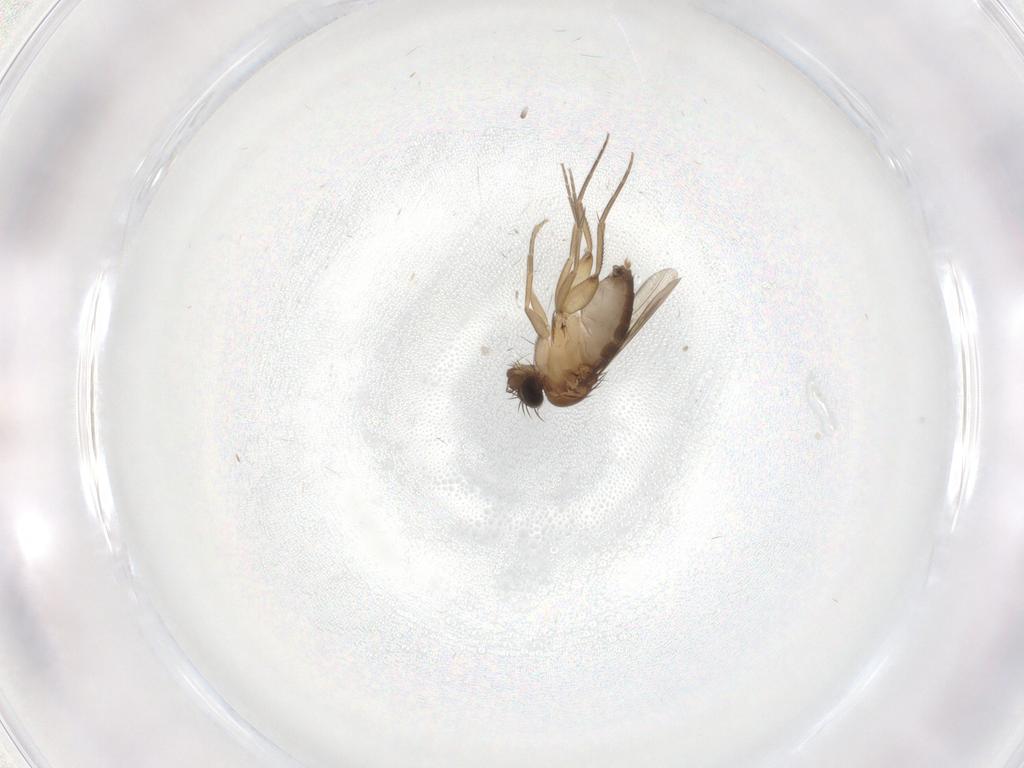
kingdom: Animalia
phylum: Arthropoda
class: Insecta
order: Diptera
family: Phoridae
